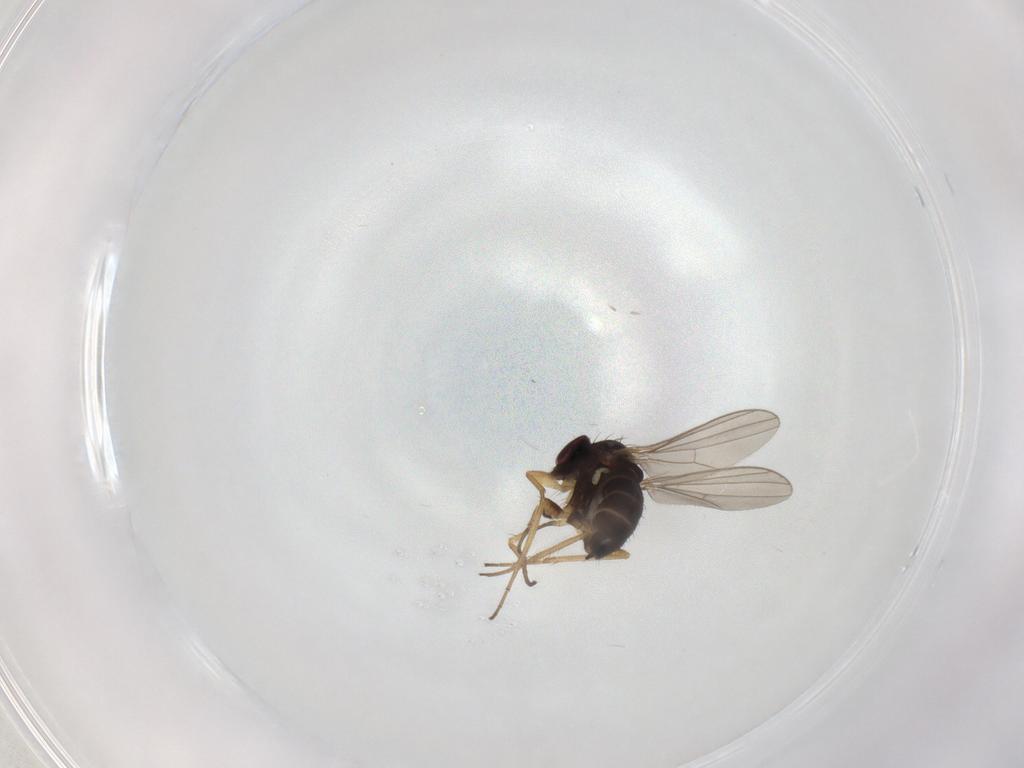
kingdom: Animalia
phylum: Arthropoda
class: Insecta
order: Diptera
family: Dolichopodidae
